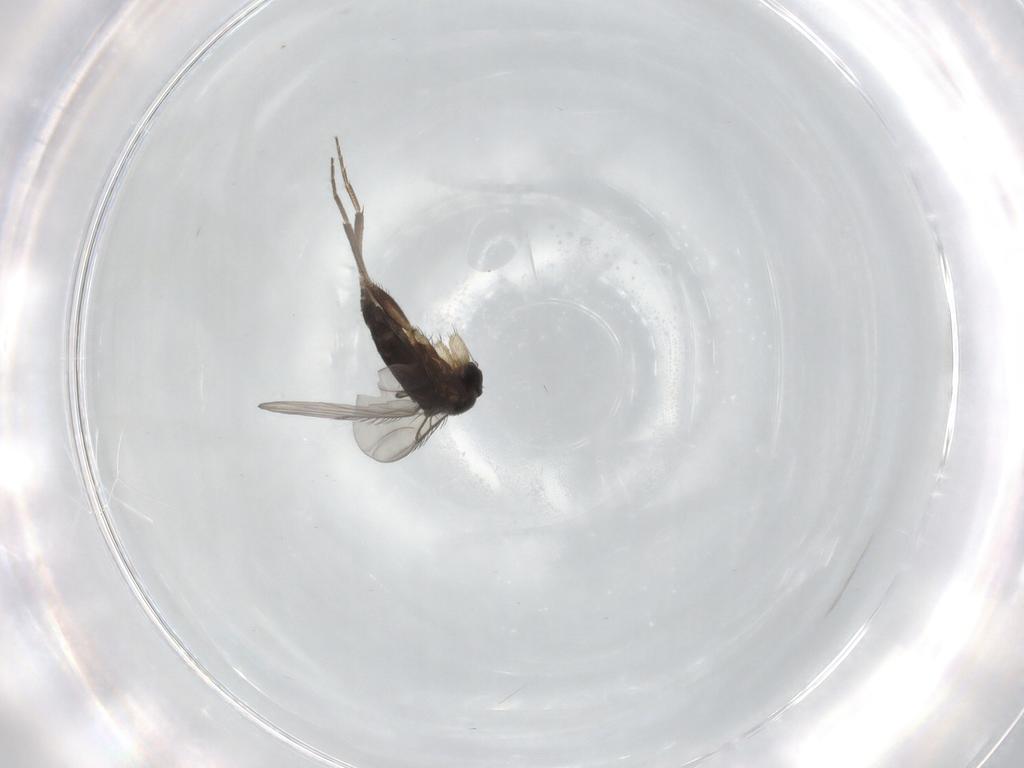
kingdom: Animalia
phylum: Arthropoda
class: Insecta
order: Diptera
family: Phoridae
